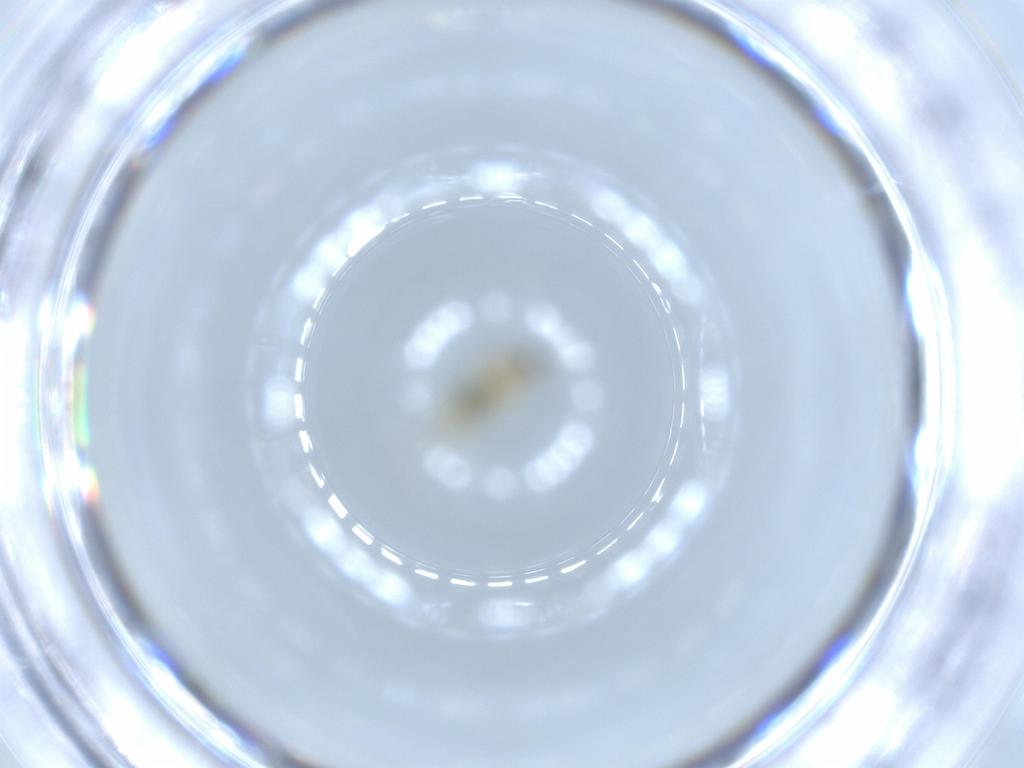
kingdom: Animalia
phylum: Arthropoda
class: Insecta
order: Diptera
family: Cecidomyiidae
